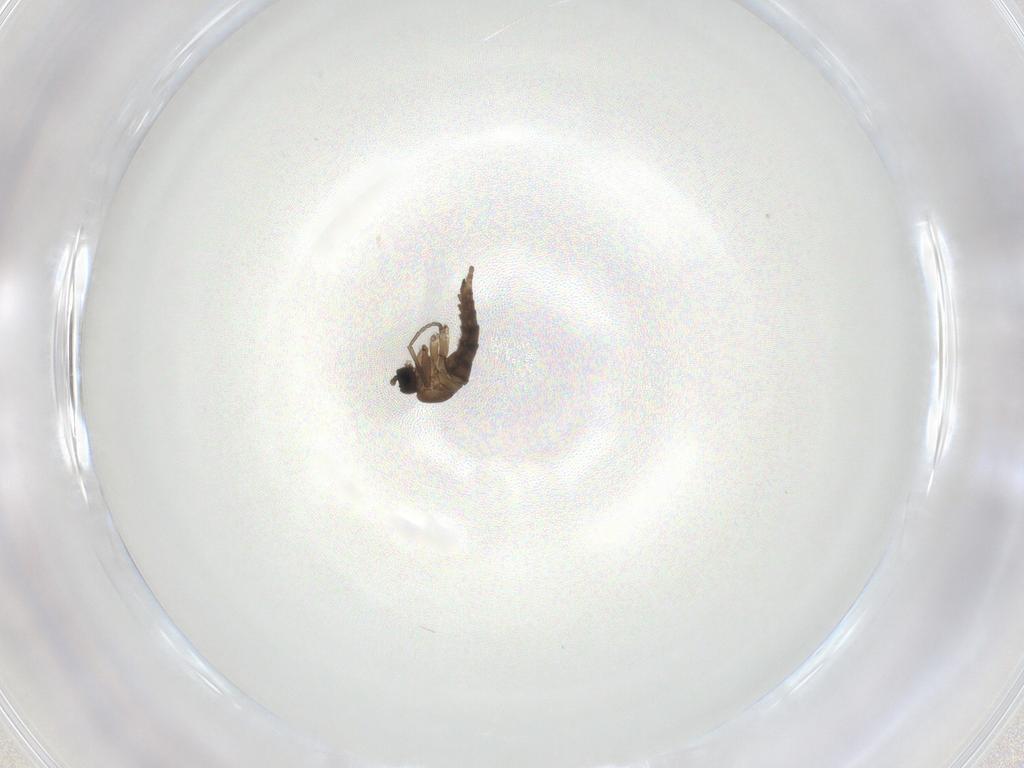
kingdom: Animalia
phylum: Arthropoda
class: Insecta
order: Diptera
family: Sciaridae
